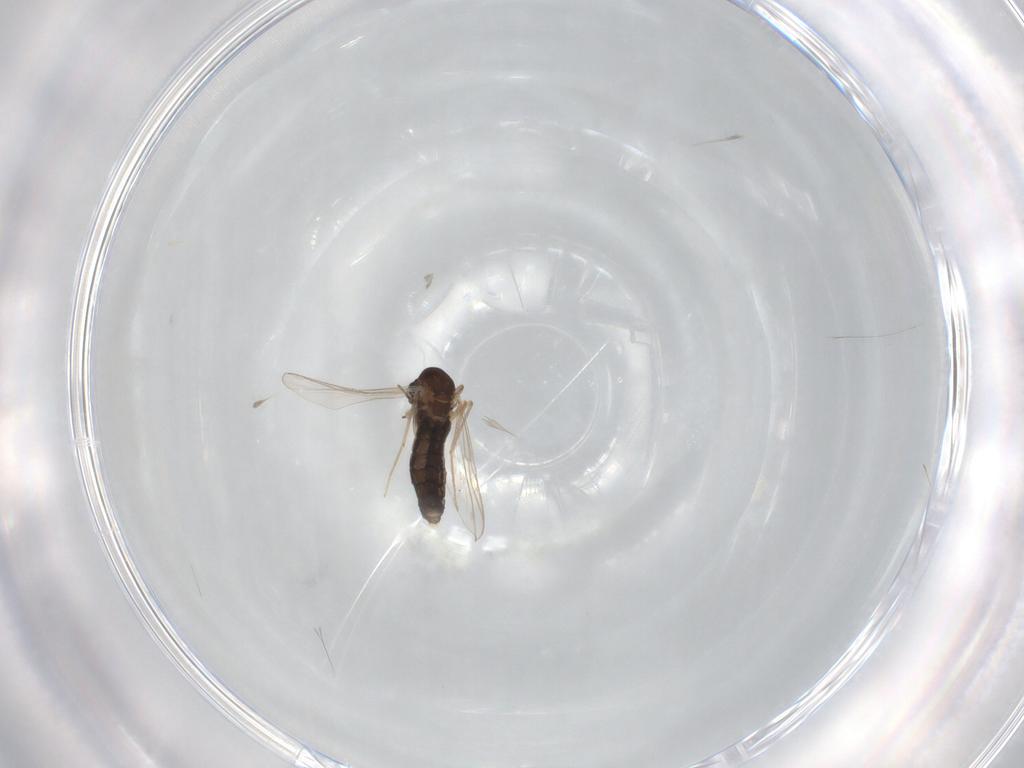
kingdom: Animalia
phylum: Arthropoda
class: Insecta
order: Diptera
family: Chironomidae
